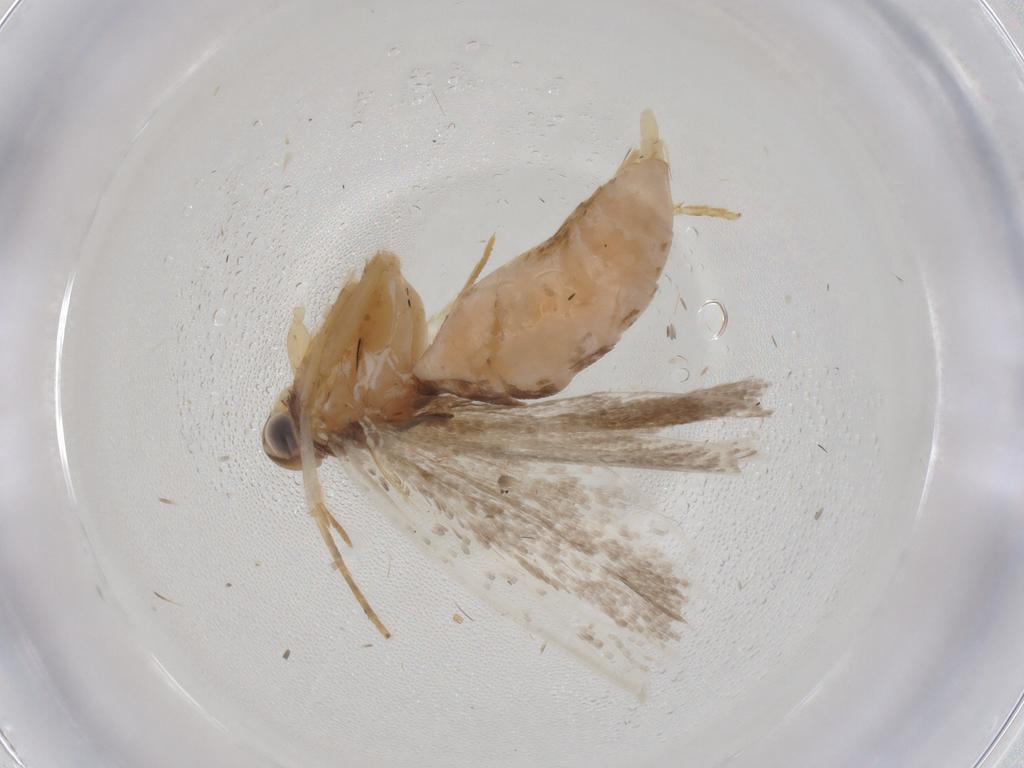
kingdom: Animalia
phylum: Arthropoda
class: Insecta
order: Lepidoptera
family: Gelechiidae
